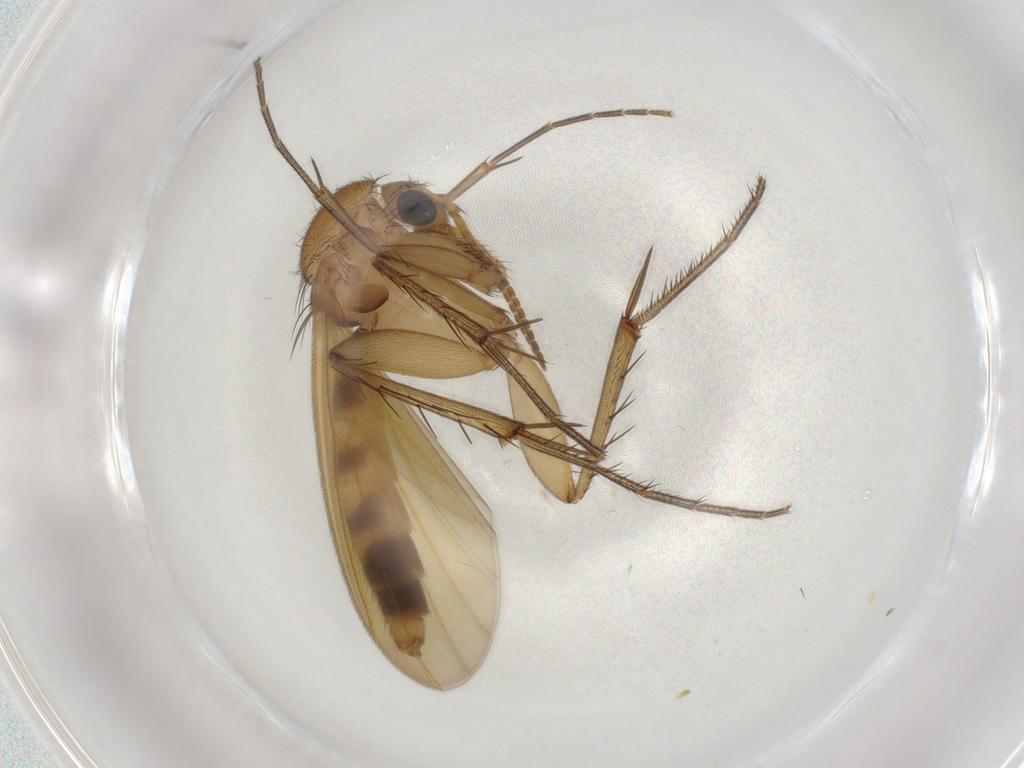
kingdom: Animalia
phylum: Arthropoda
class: Insecta
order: Diptera
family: Mycetophilidae
